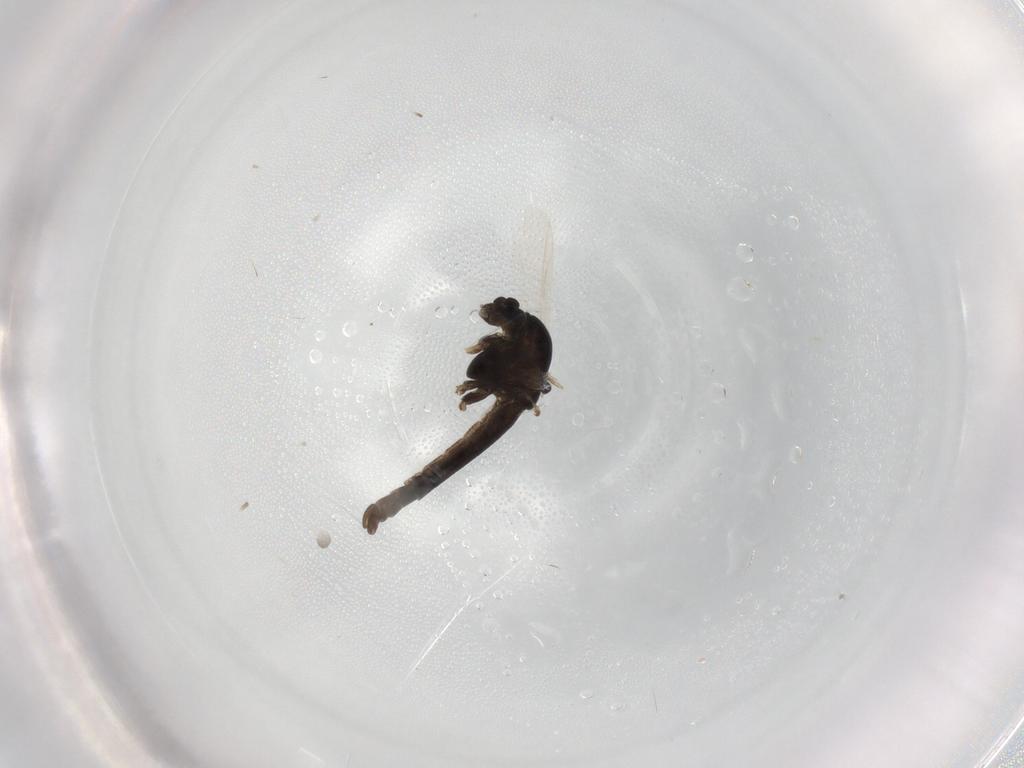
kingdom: Animalia
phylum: Arthropoda
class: Insecta
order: Diptera
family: Chironomidae
